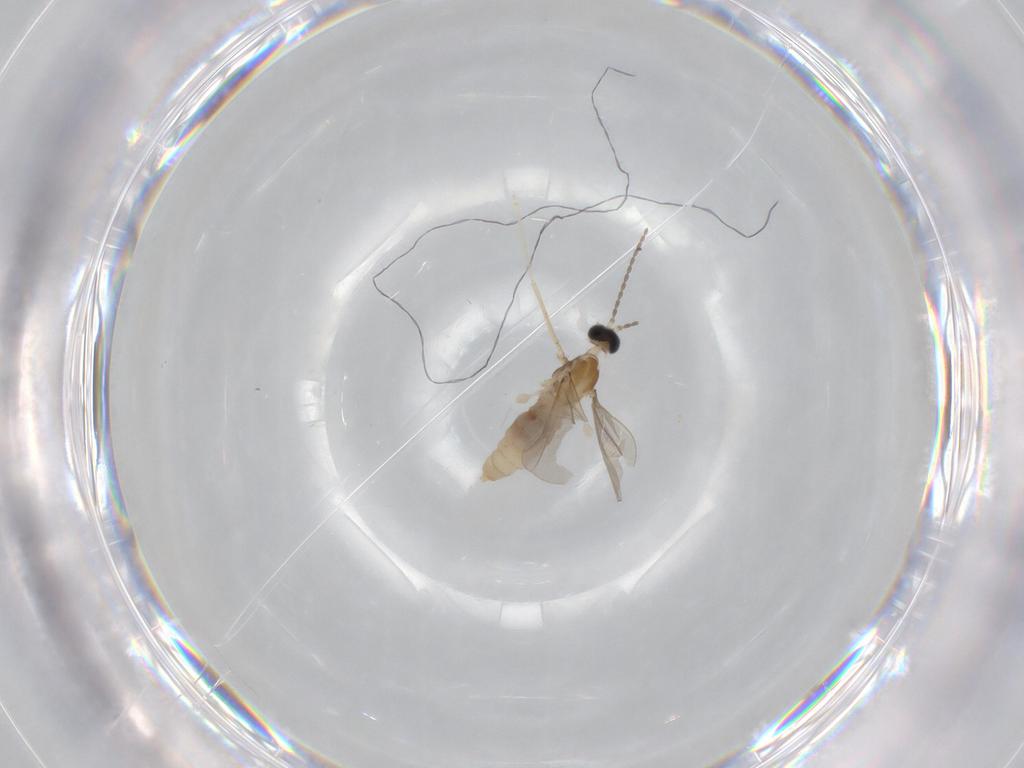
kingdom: Animalia
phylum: Arthropoda
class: Insecta
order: Diptera
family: Cecidomyiidae
